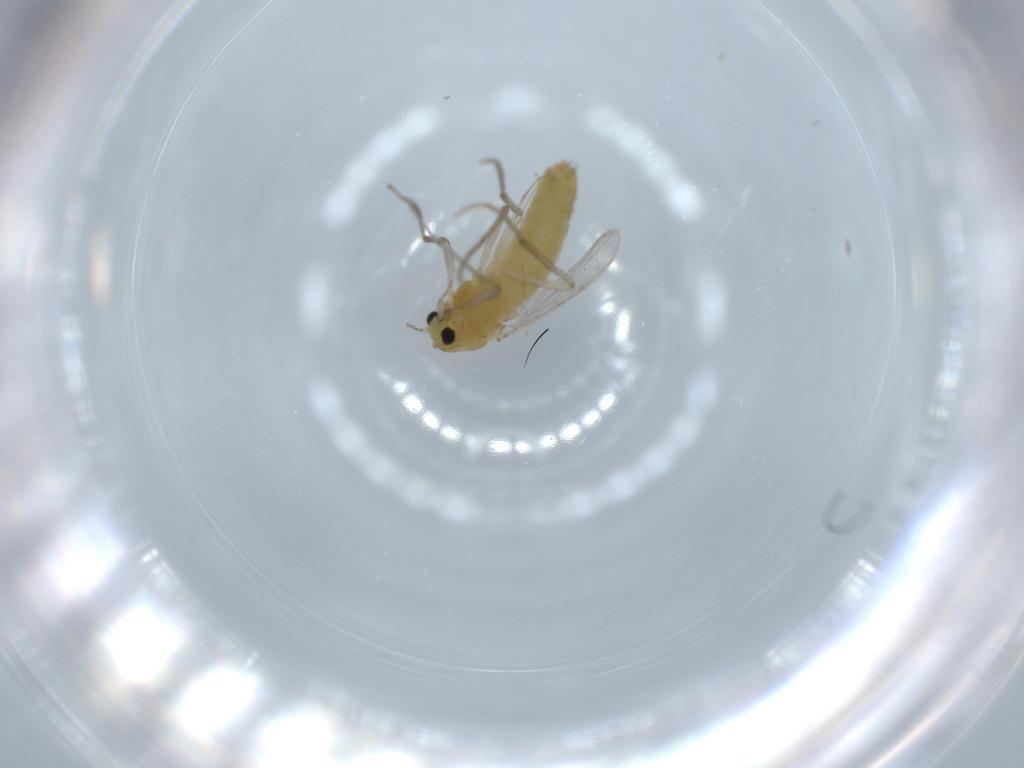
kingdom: Animalia
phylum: Arthropoda
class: Insecta
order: Diptera
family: Chironomidae
